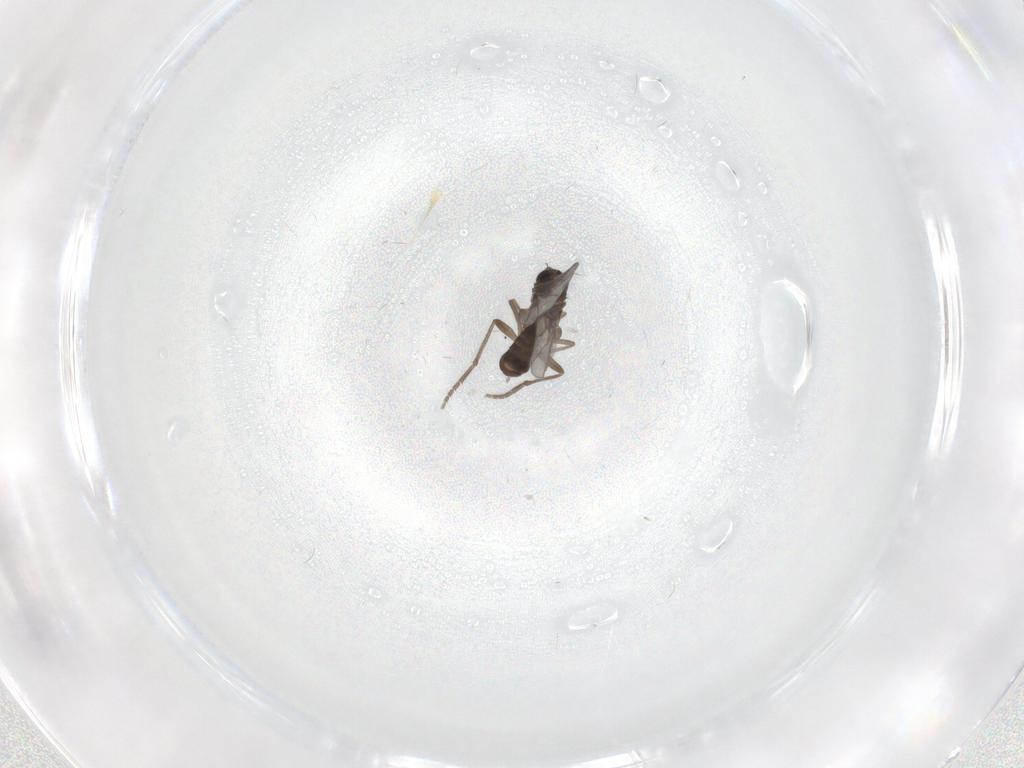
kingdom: Animalia
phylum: Arthropoda
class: Insecta
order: Diptera
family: Phoridae
